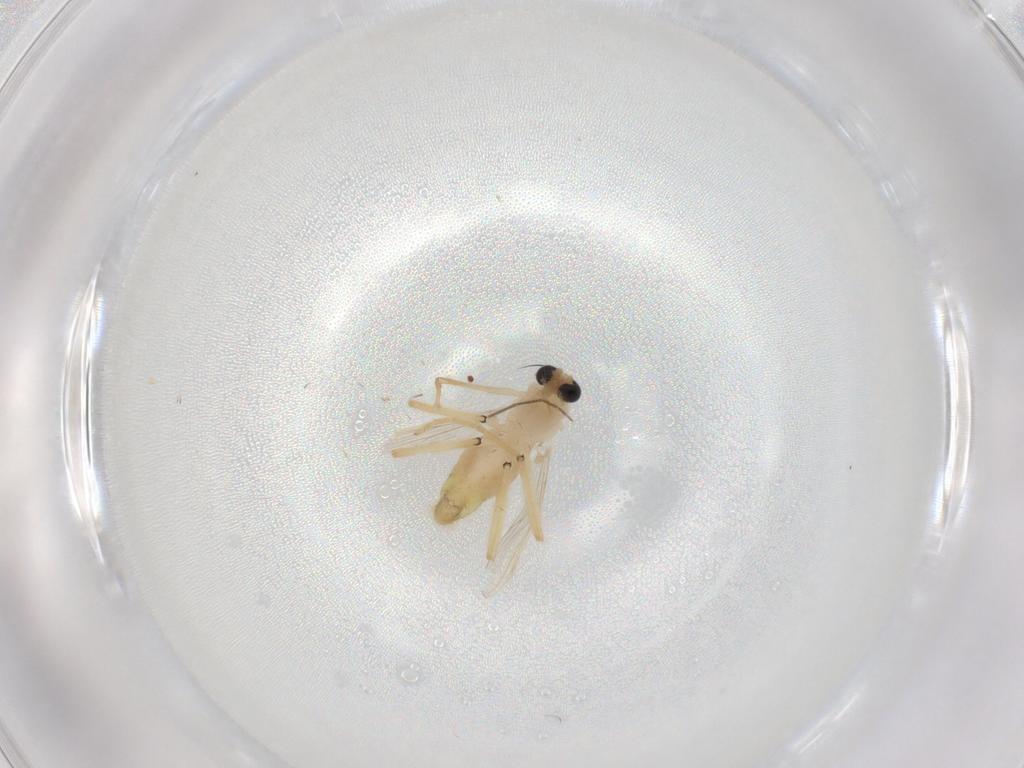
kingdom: Animalia
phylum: Arthropoda
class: Insecta
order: Diptera
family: Chironomidae
